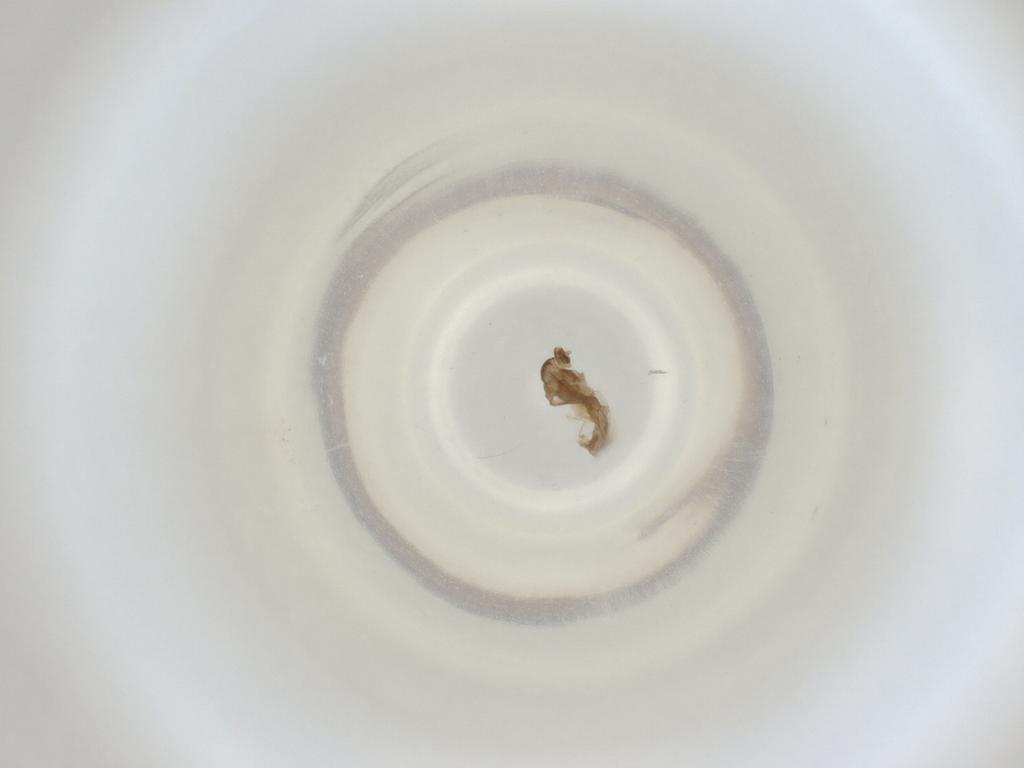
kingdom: Animalia
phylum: Arthropoda
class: Insecta
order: Diptera
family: Cecidomyiidae
